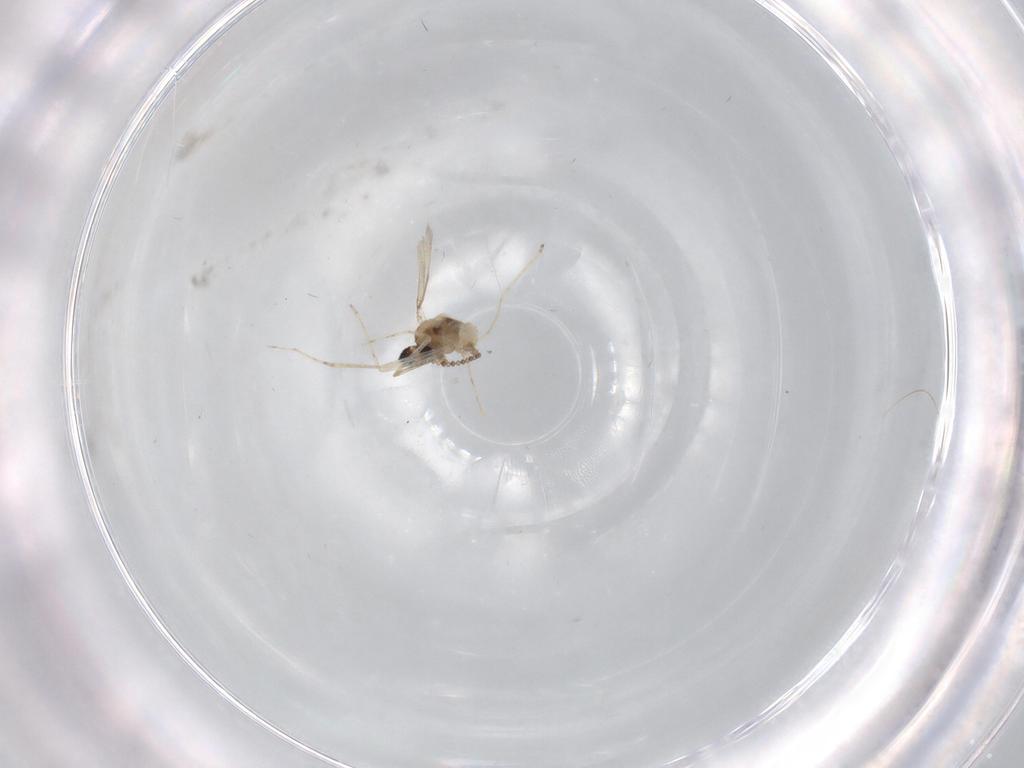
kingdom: Animalia
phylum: Arthropoda
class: Insecta
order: Diptera
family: Cecidomyiidae
